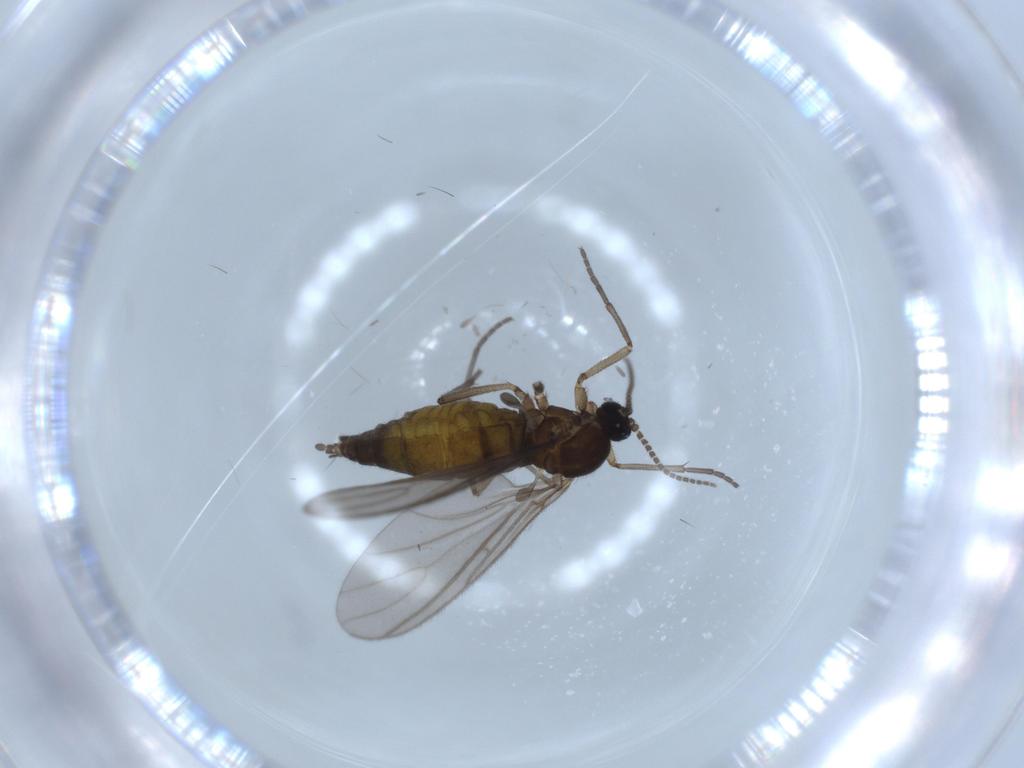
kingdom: Animalia
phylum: Arthropoda
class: Insecta
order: Diptera
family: Sciaridae
